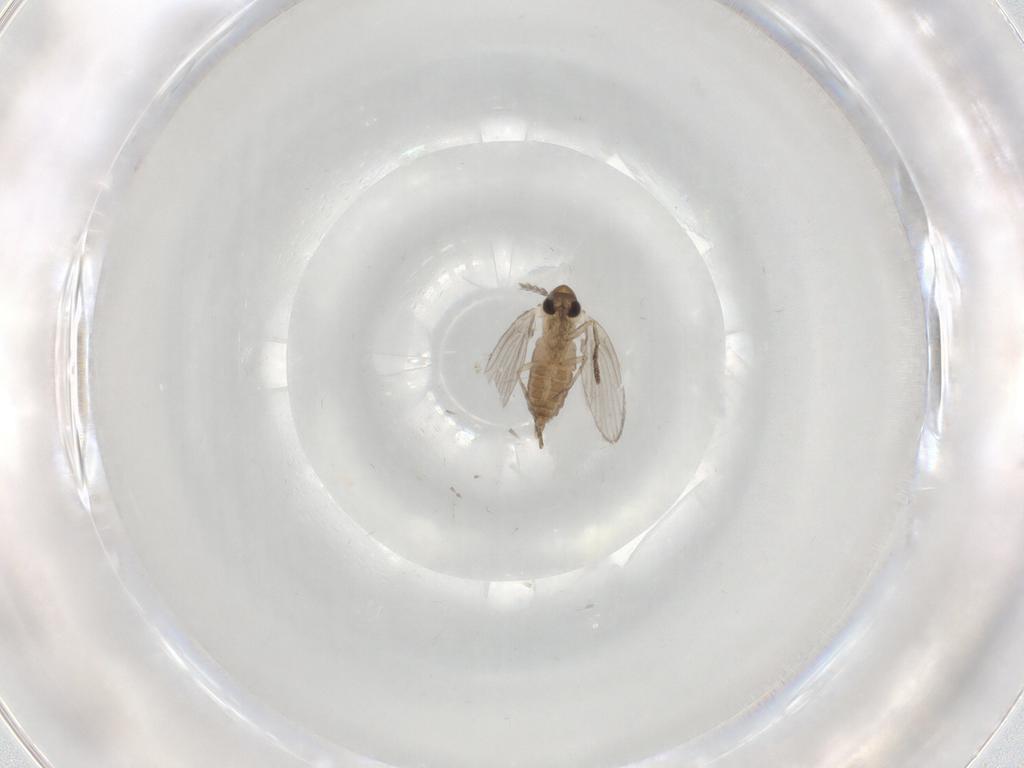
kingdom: Animalia
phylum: Arthropoda
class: Insecta
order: Diptera
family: Psychodidae
